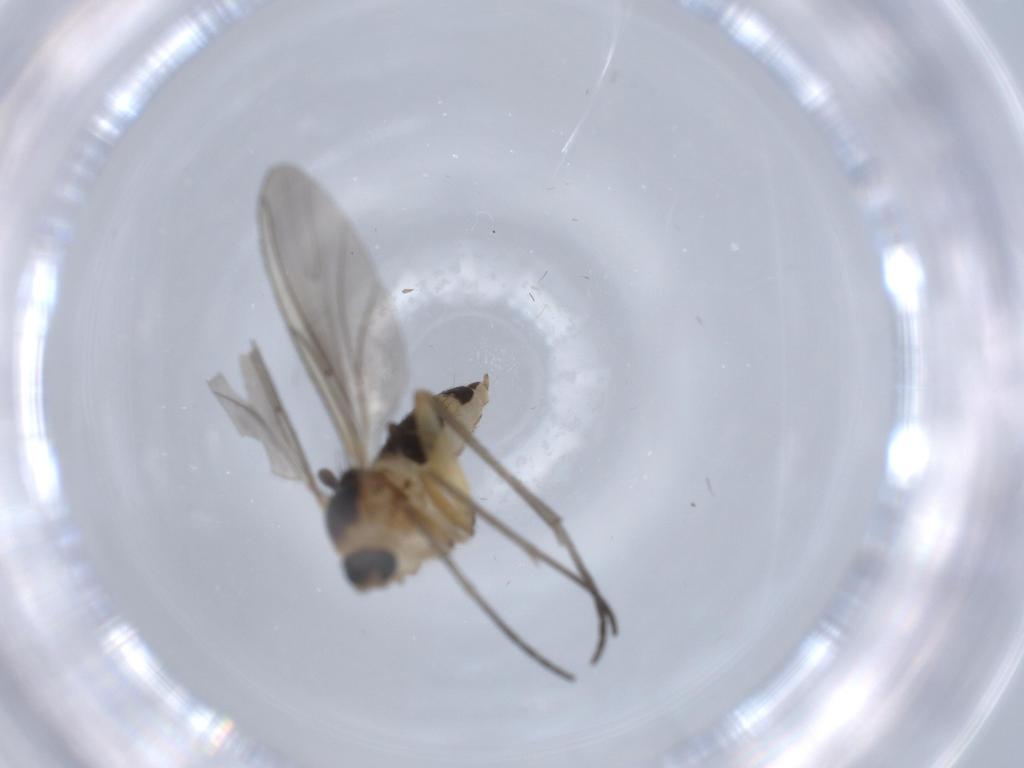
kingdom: Animalia
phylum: Arthropoda
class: Insecta
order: Diptera
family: Sciaridae
